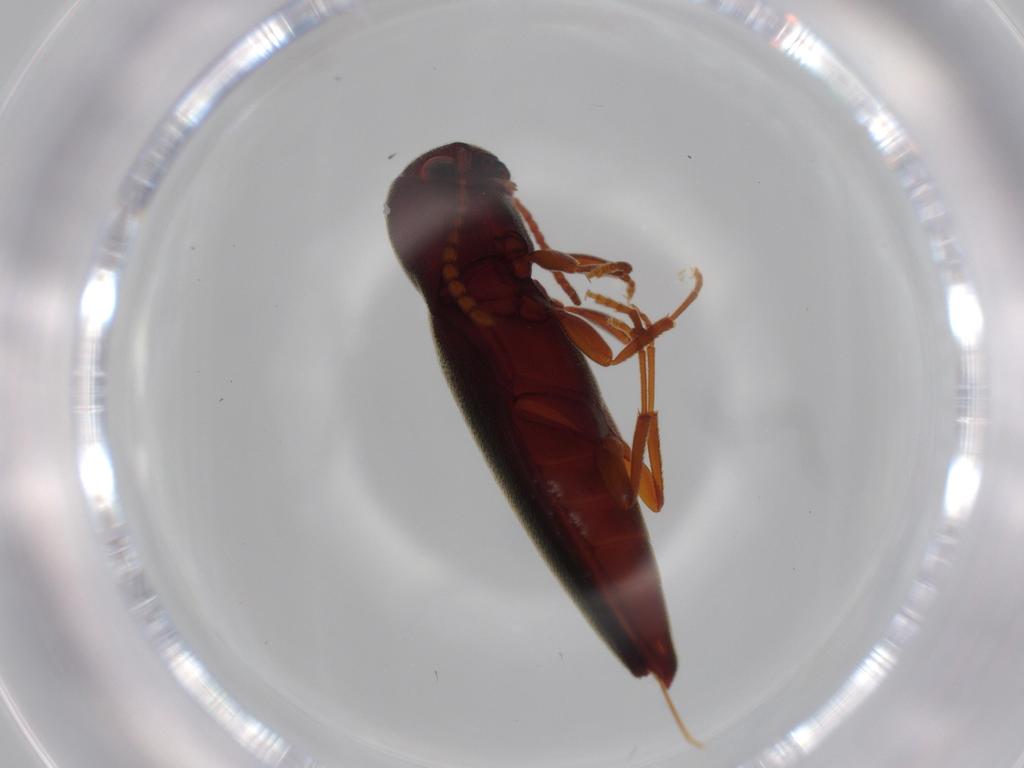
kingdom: Animalia
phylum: Arthropoda
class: Insecta
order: Coleoptera
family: Eucnemidae
